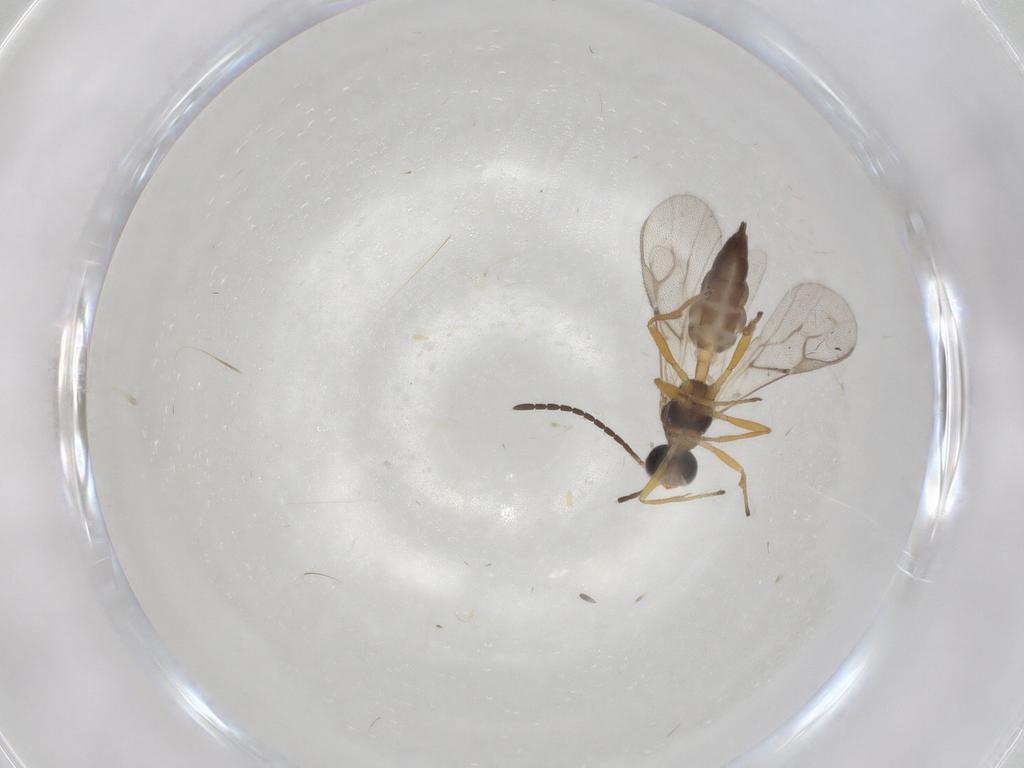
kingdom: Animalia
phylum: Arthropoda
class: Insecta
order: Hymenoptera
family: Braconidae
